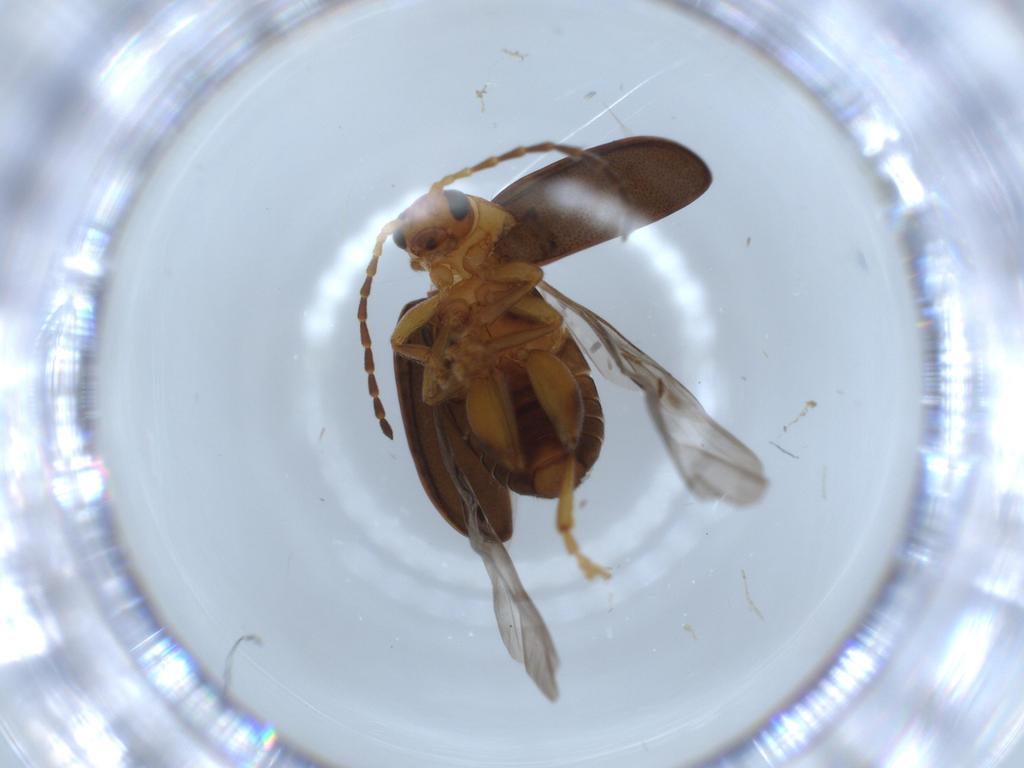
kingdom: Animalia
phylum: Arthropoda
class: Insecta
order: Coleoptera
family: Chrysomelidae
